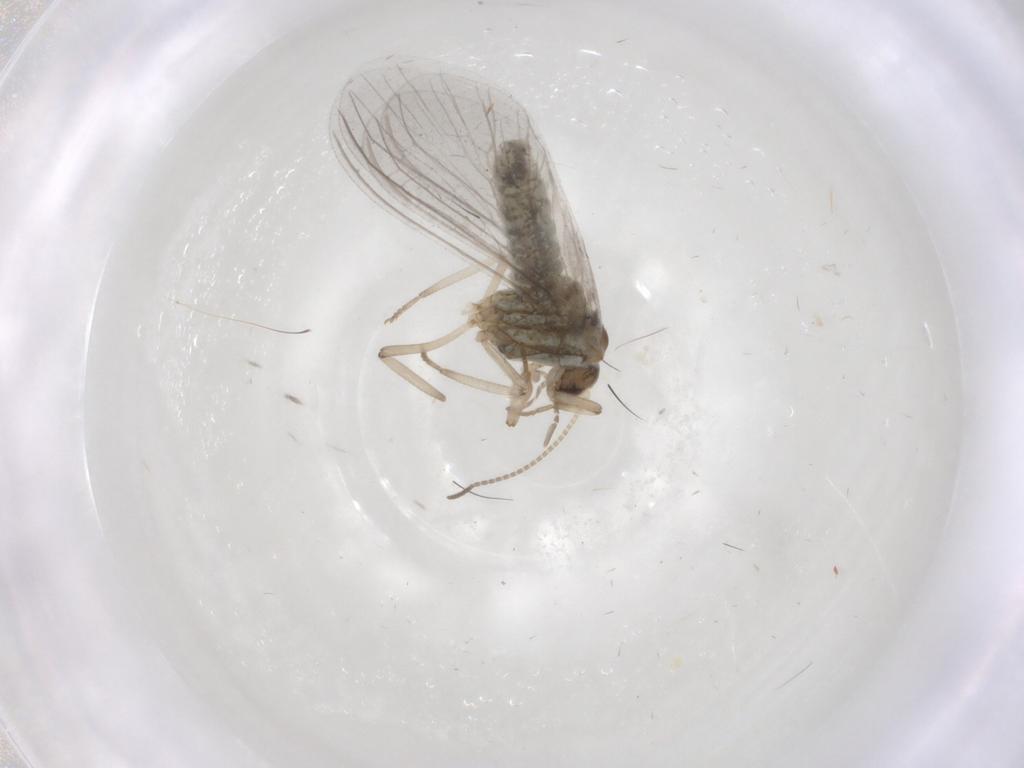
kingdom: Animalia
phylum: Arthropoda
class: Insecta
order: Neuroptera
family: Coniopterygidae
